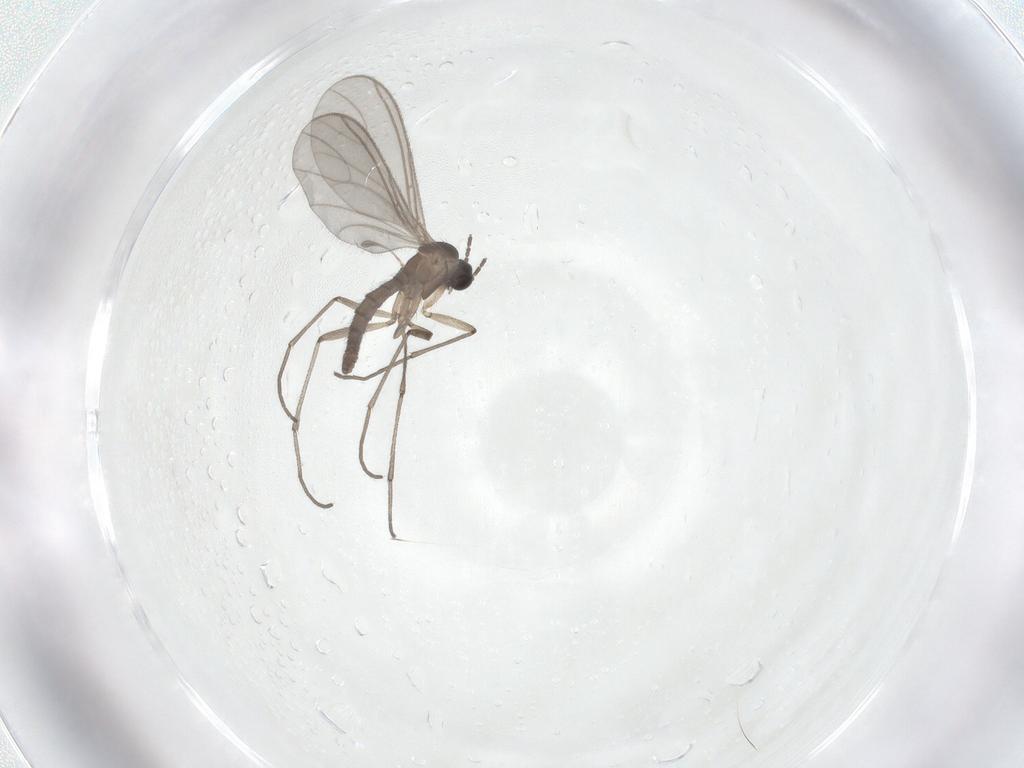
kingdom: Animalia
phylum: Arthropoda
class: Insecta
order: Diptera
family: Sciaridae
